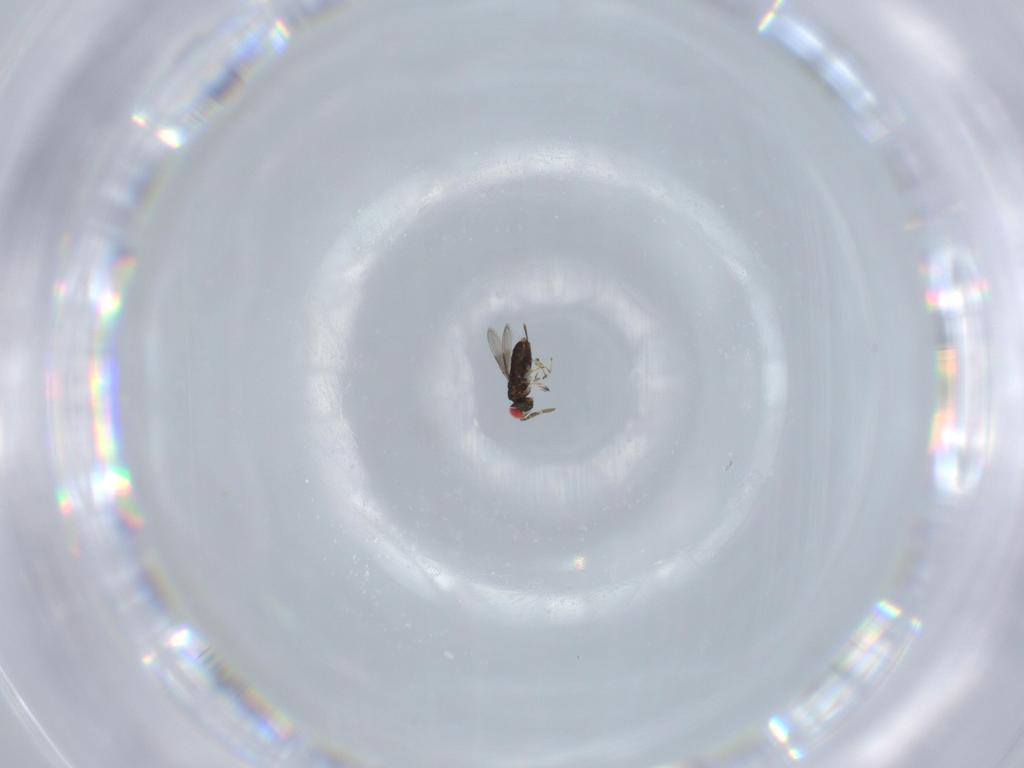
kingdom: Animalia
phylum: Arthropoda
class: Insecta
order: Hymenoptera
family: Azotidae
